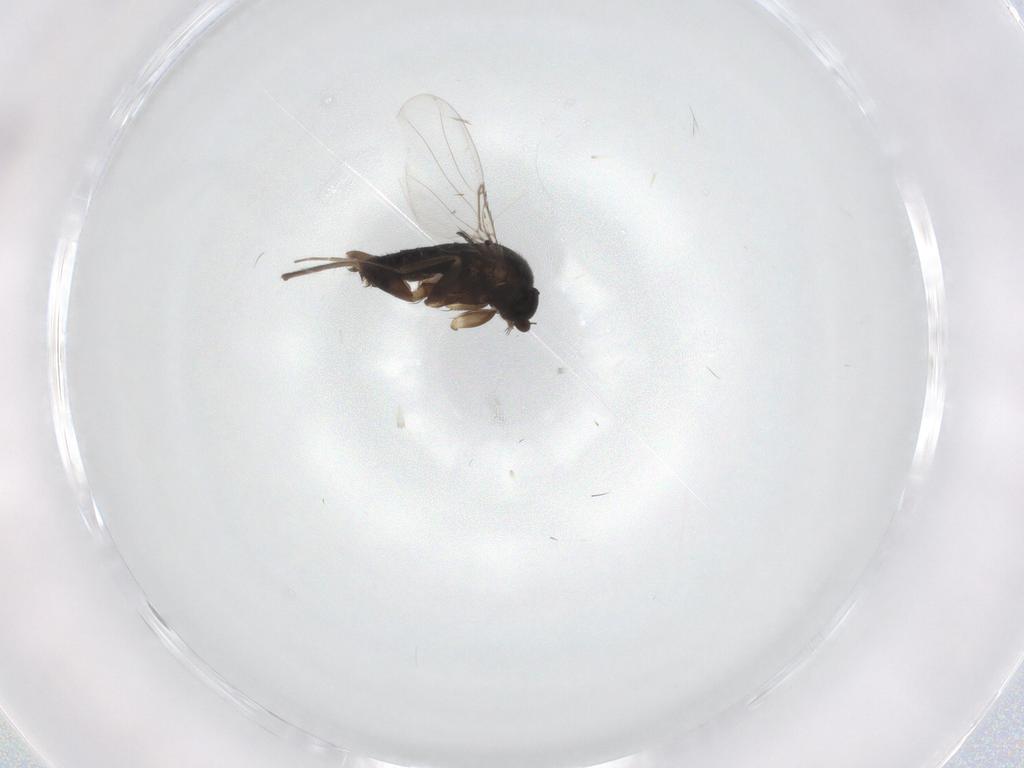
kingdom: Animalia
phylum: Arthropoda
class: Insecta
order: Diptera
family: Phoridae
